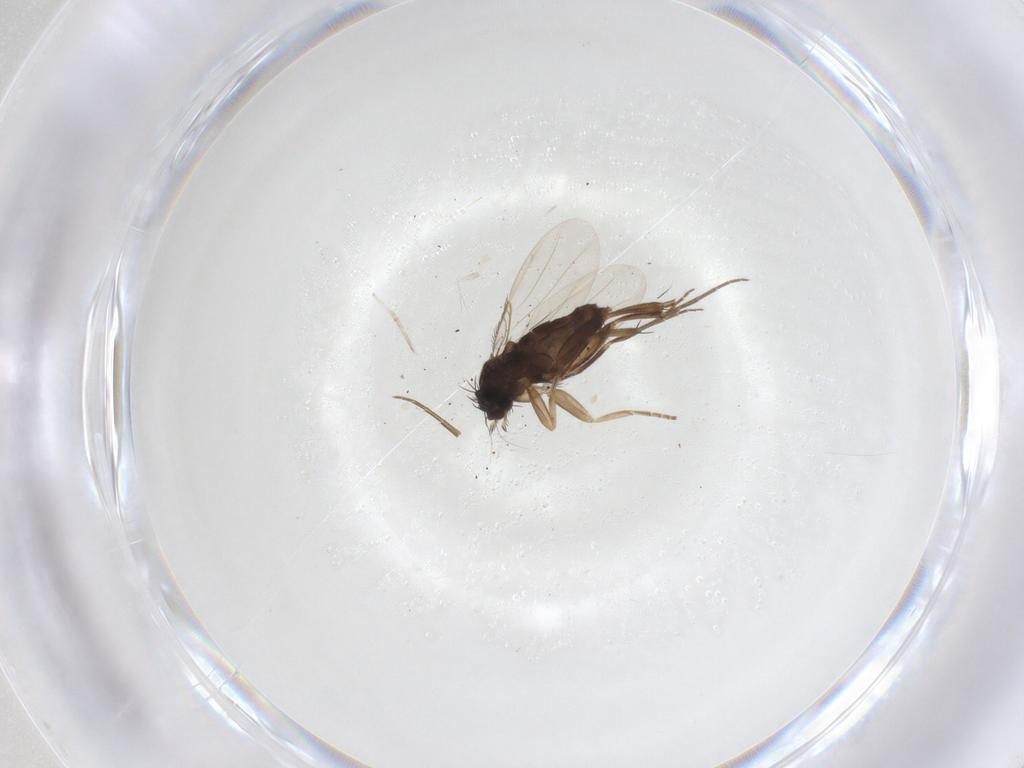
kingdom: Animalia
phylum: Arthropoda
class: Insecta
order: Diptera
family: Phoridae
